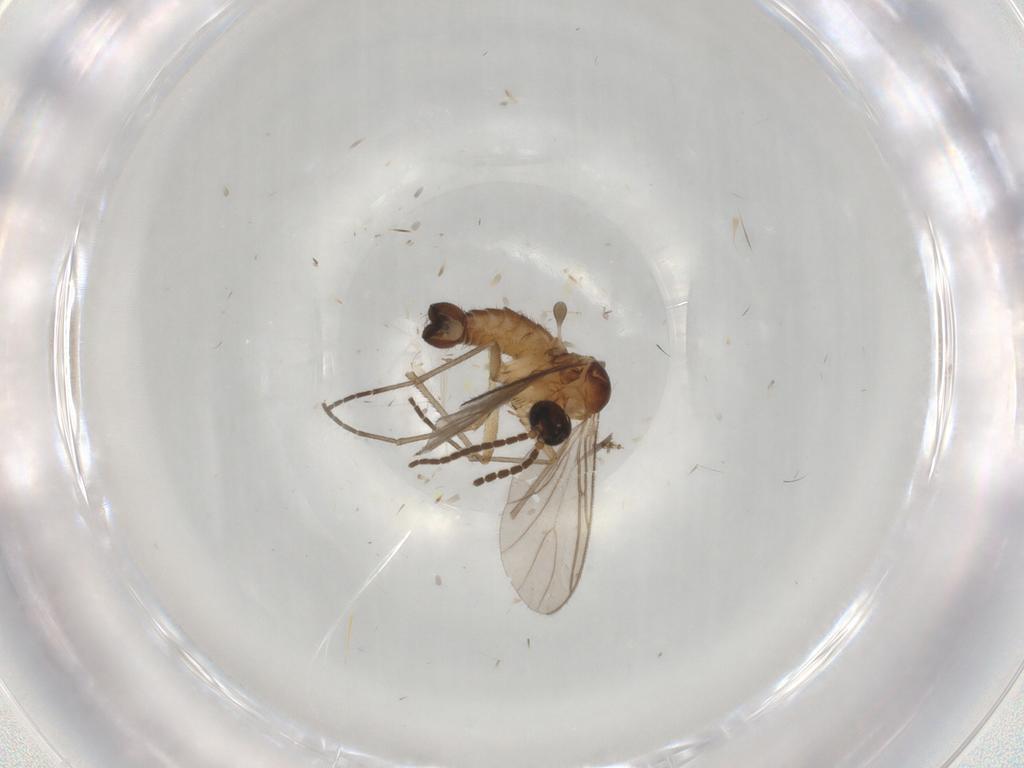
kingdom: Animalia
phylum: Arthropoda
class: Insecta
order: Diptera
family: Sciaridae
